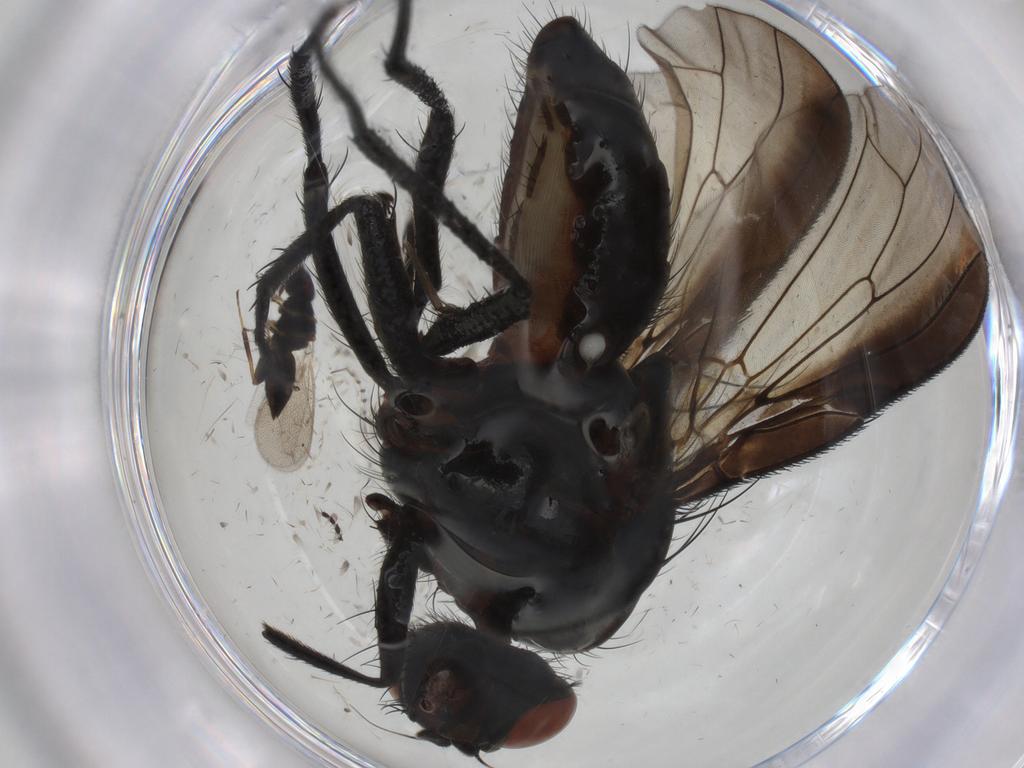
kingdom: Animalia
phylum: Arthropoda
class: Insecta
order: Diptera
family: Anthomyiidae
